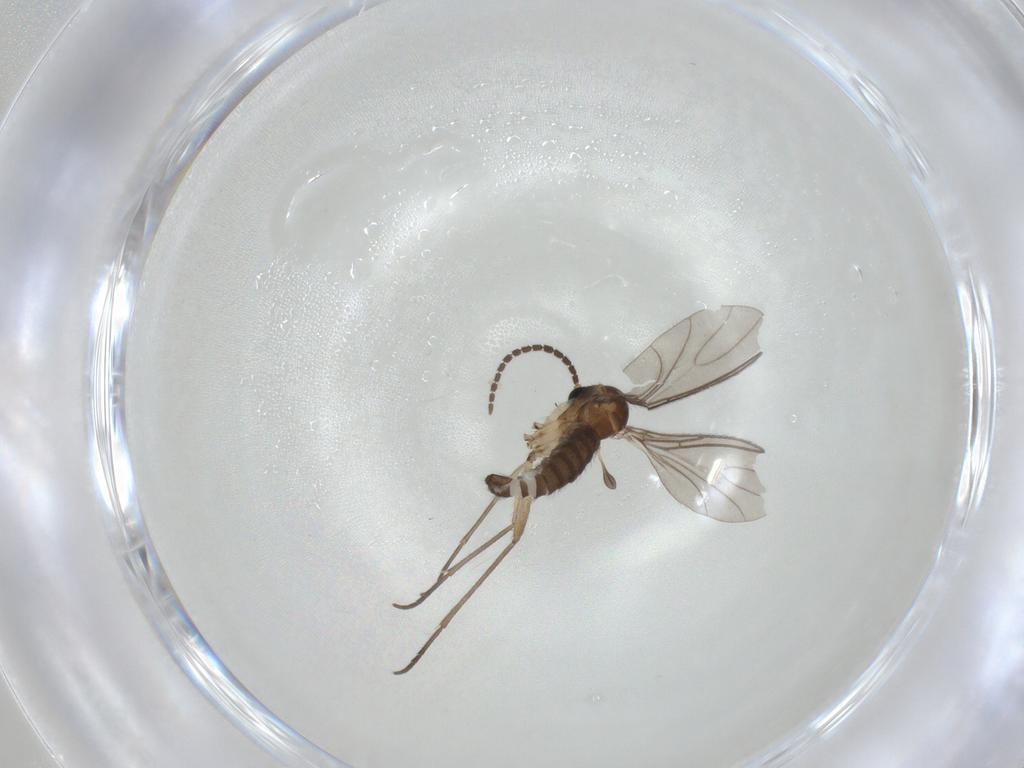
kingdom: Animalia
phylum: Arthropoda
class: Insecta
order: Diptera
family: Sciaridae
